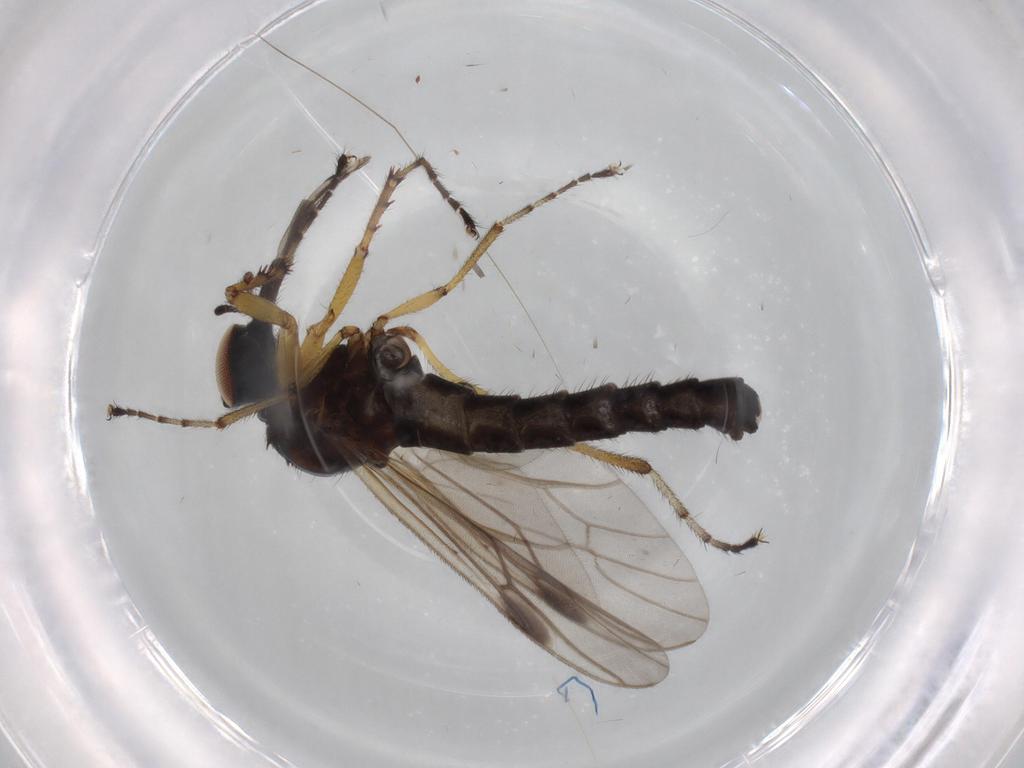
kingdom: Animalia
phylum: Arthropoda
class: Insecta
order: Diptera
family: Cecidomyiidae
